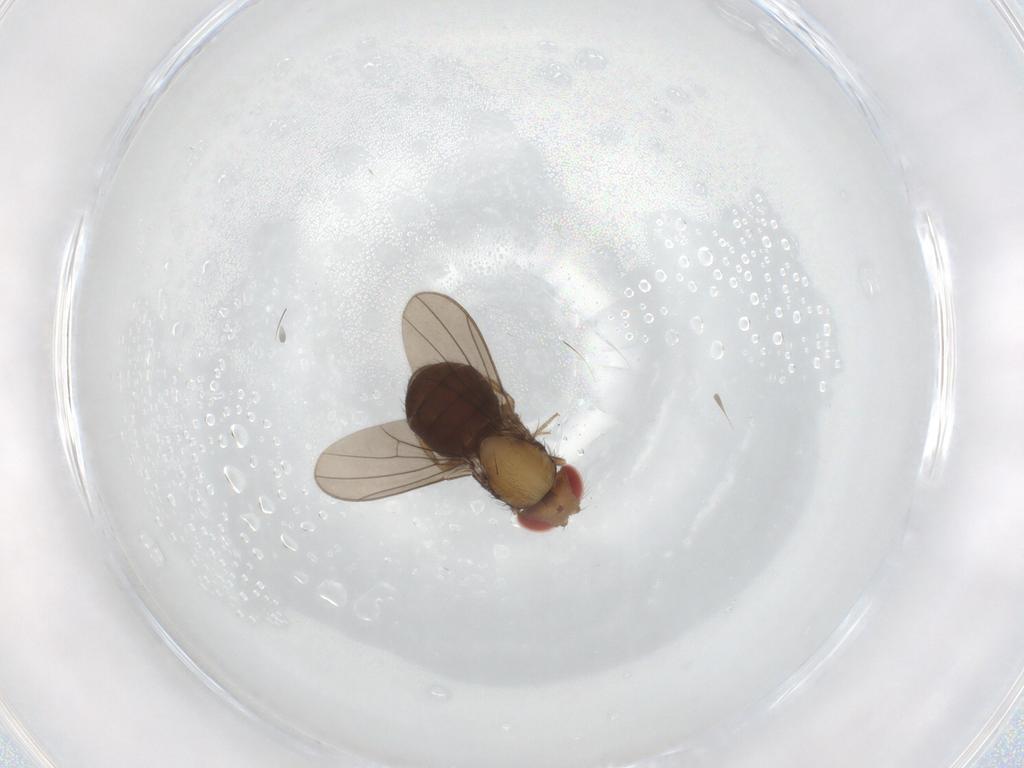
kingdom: Animalia
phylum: Arthropoda
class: Insecta
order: Diptera
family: Drosophilidae
